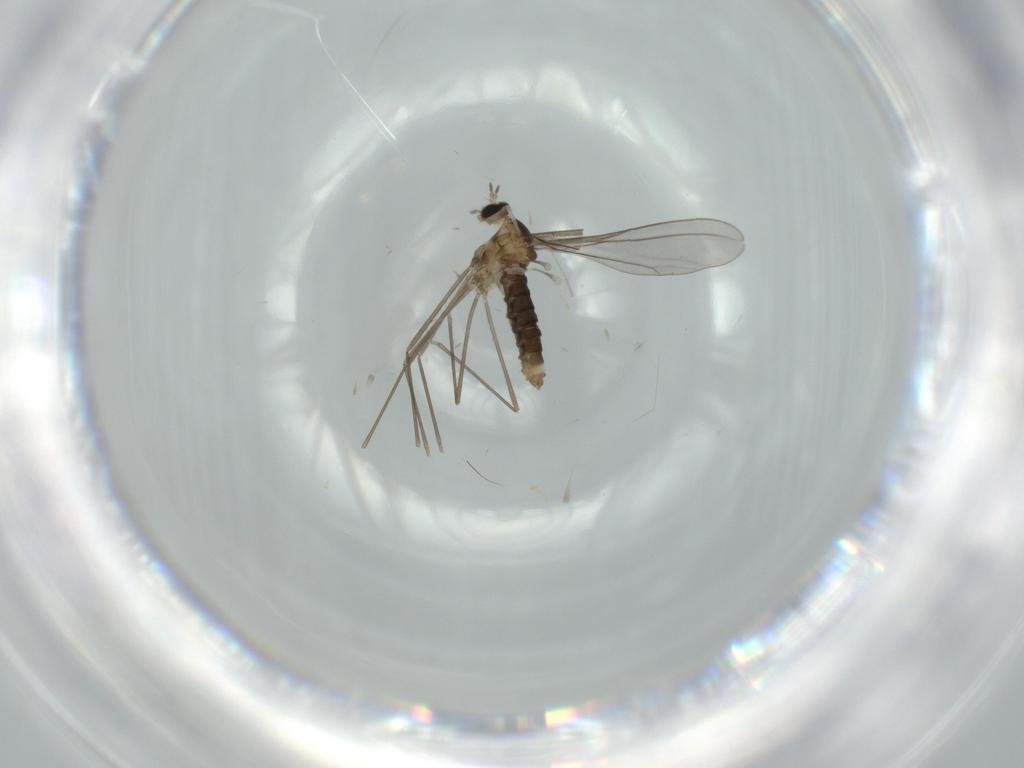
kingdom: Animalia
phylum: Arthropoda
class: Insecta
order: Diptera
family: Cecidomyiidae
